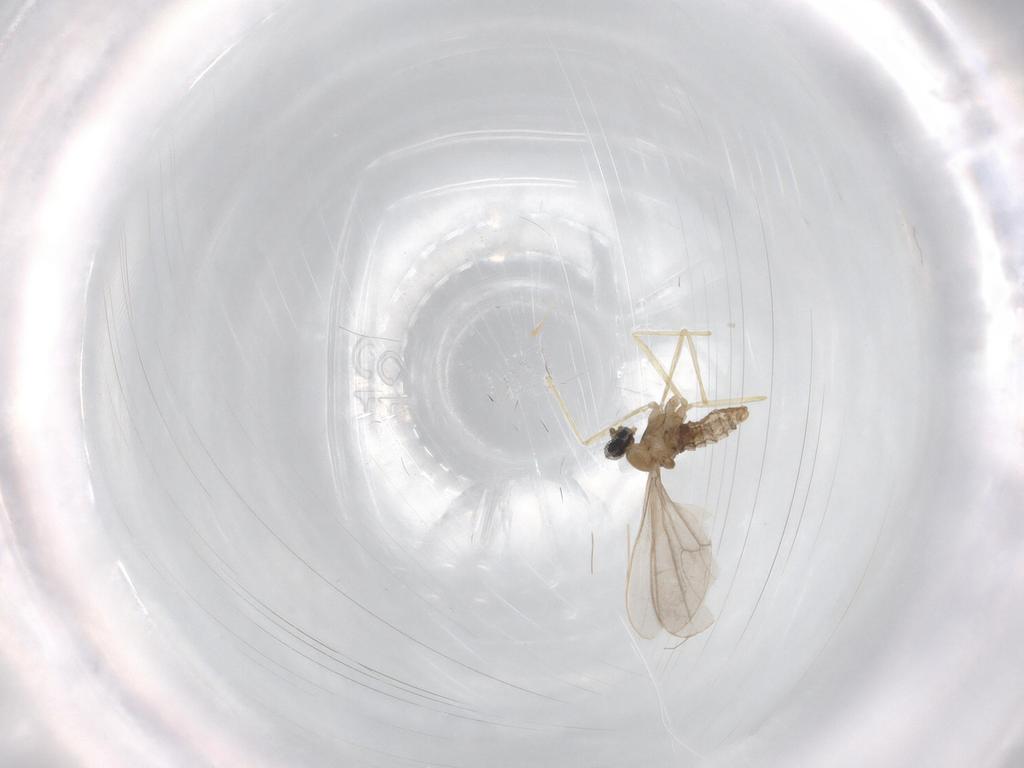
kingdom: Animalia
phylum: Arthropoda
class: Insecta
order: Diptera
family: Cecidomyiidae
